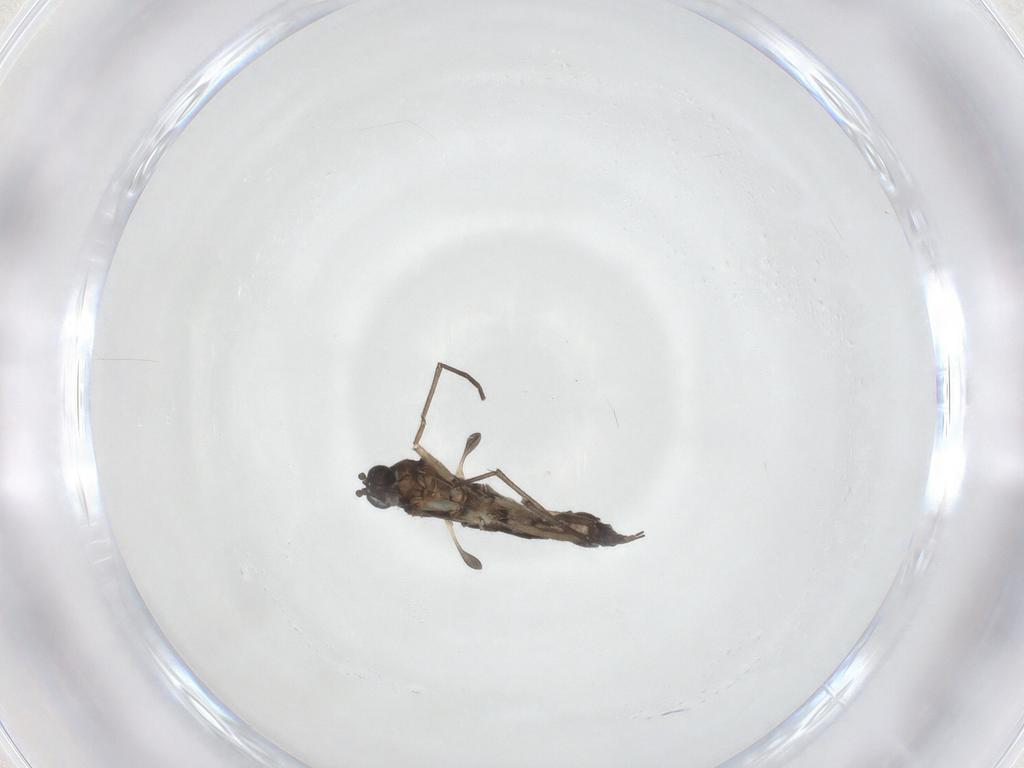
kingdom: Animalia
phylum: Arthropoda
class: Insecta
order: Diptera
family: Sciaridae
